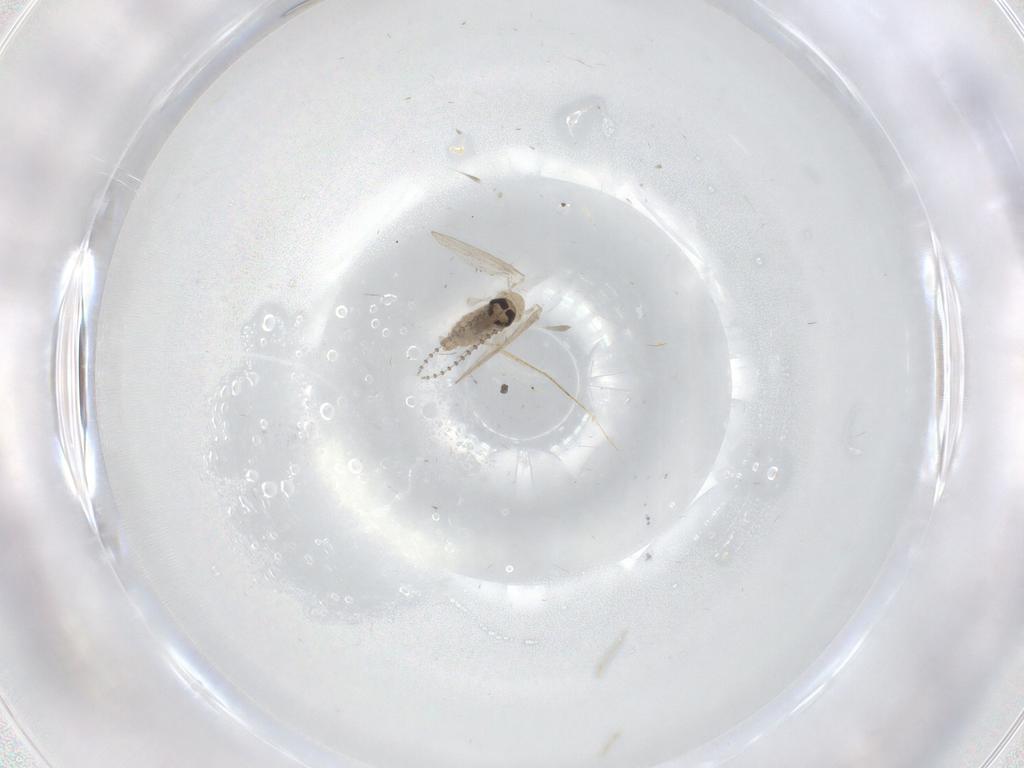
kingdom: Animalia
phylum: Arthropoda
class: Insecta
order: Diptera
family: Psychodidae
